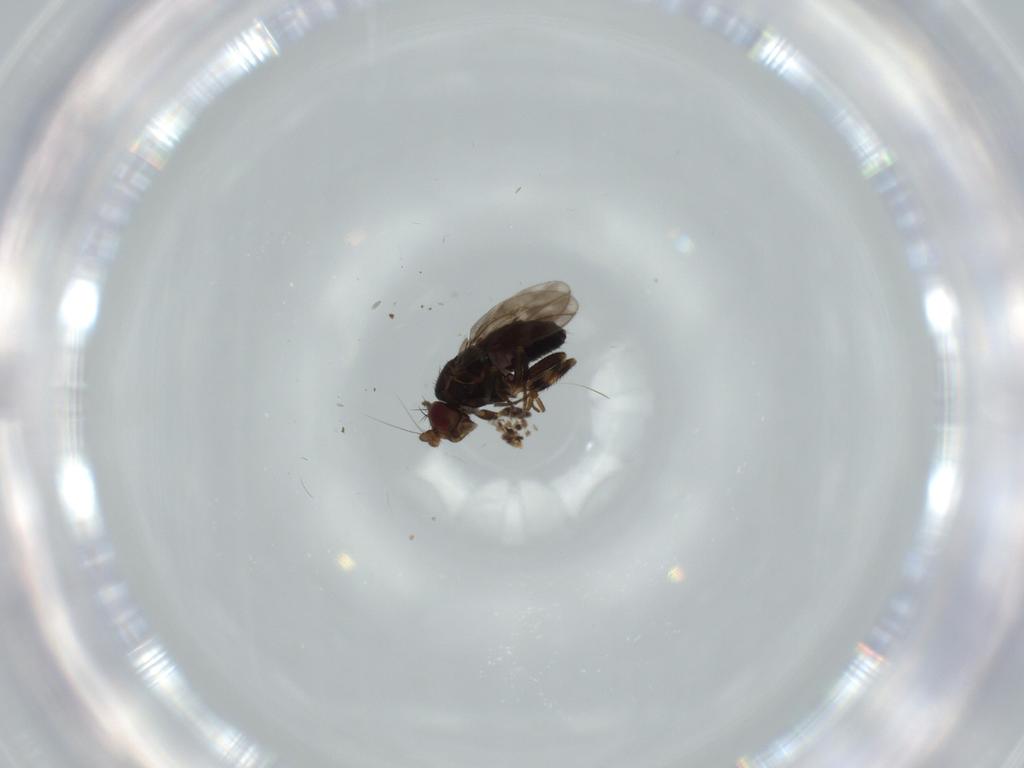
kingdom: Animalia
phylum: Arthropoda
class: Insecta
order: Diptera
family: Sphaeroceridae
